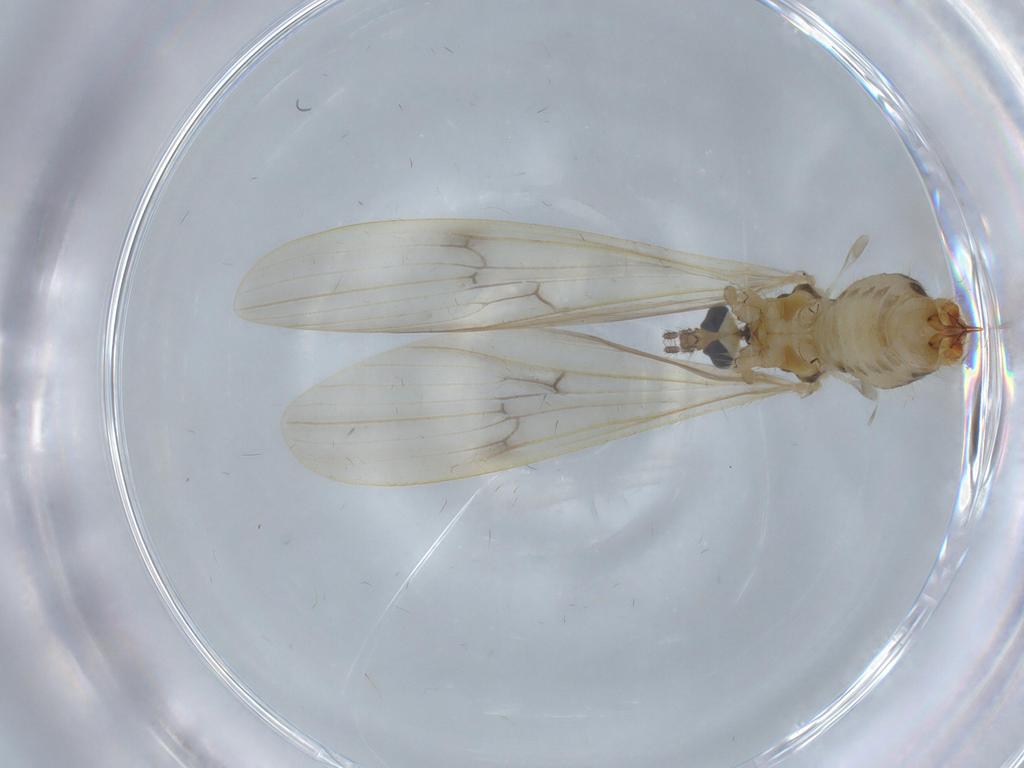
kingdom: Animalia
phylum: Arthropoda
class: Insecta
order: Diptera
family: Limoniidae
